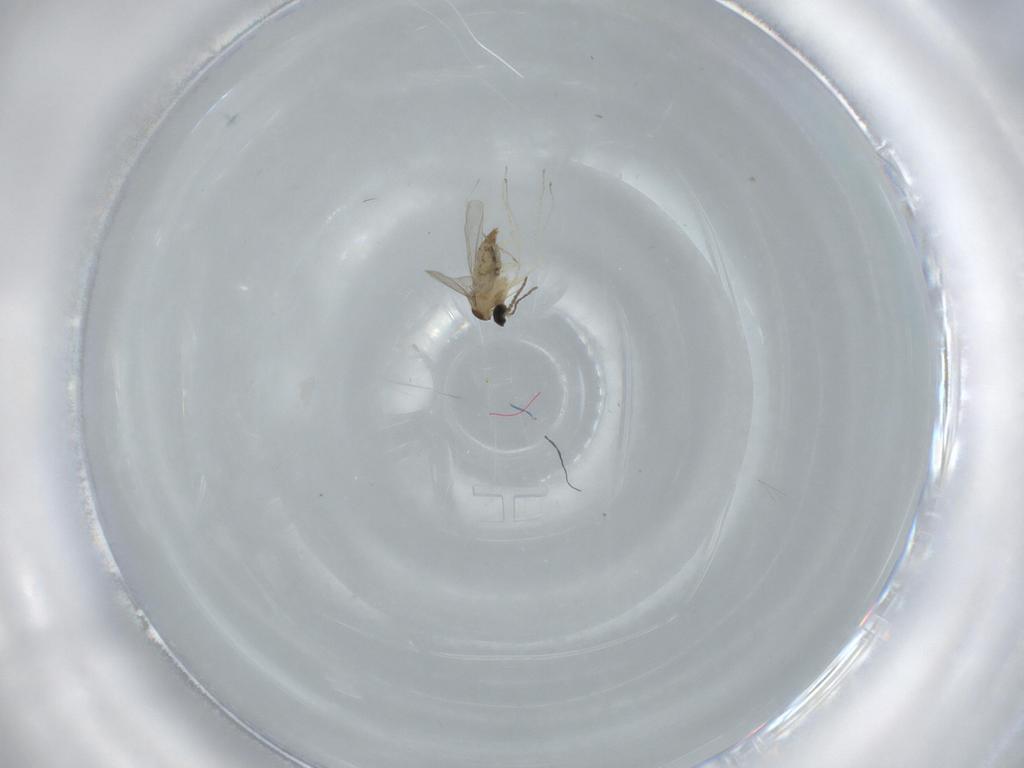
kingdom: Animalia
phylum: Arthropoda
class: Insecta
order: Diptera
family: Cecidomyiidae
